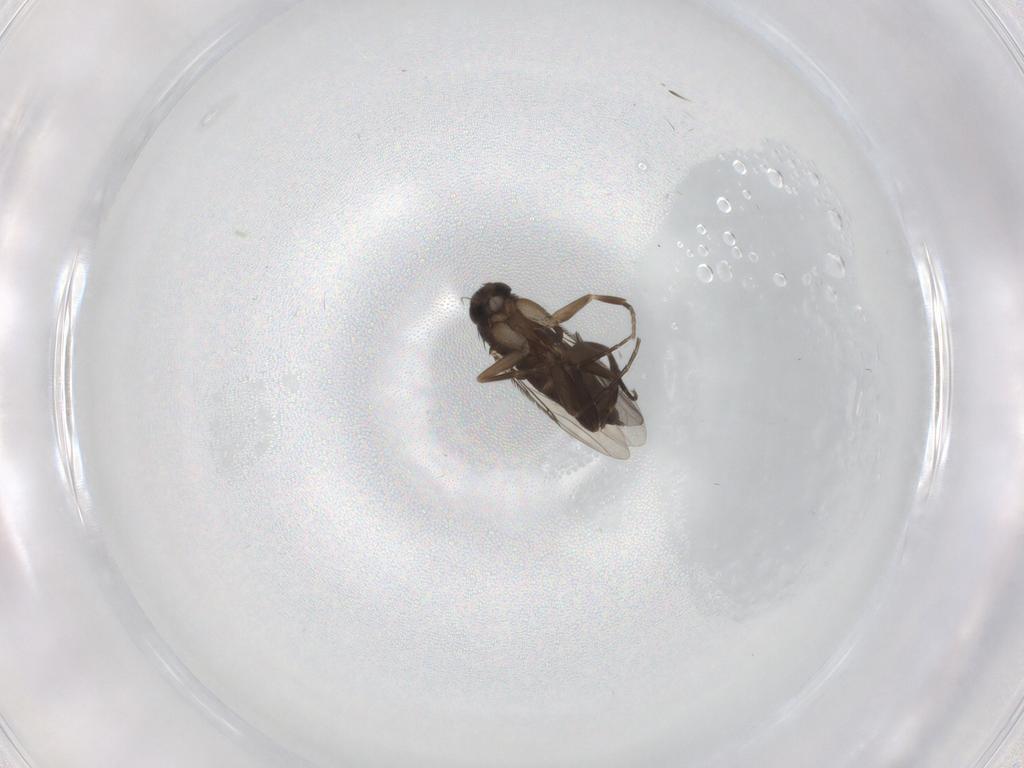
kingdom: Animalia
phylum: Arthropoda
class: Insecta
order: Diptera
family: Phoridae
